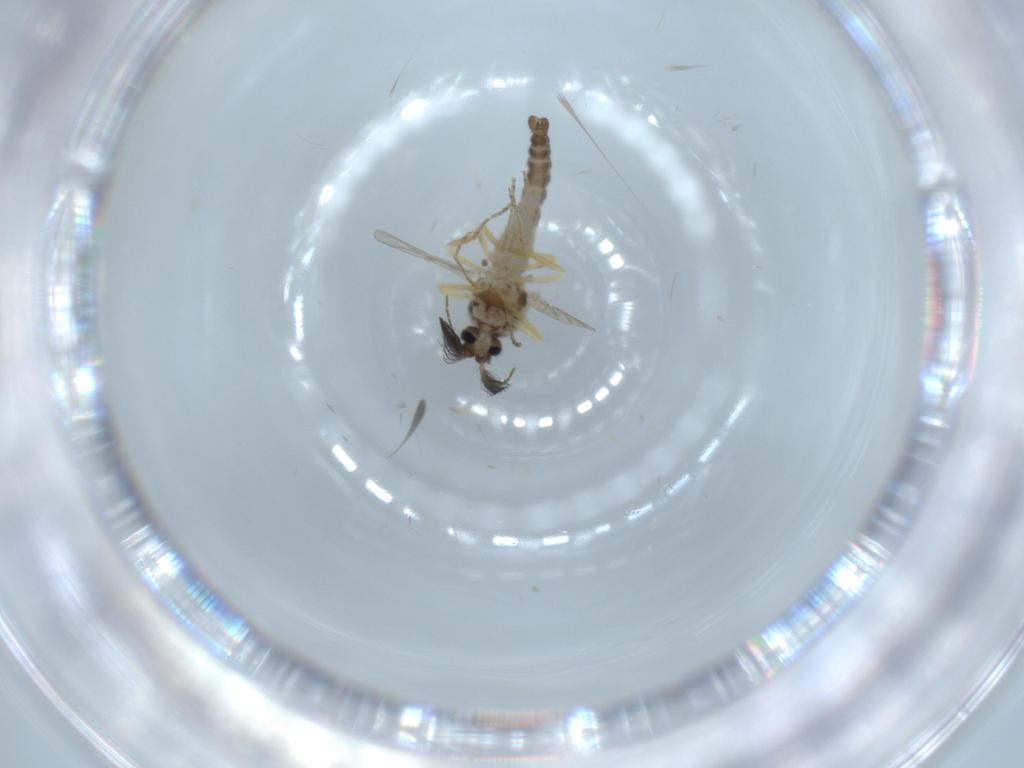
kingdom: Animalia
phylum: Arthropoda
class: Insecta
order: Diptera
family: Ceratopogonidae
